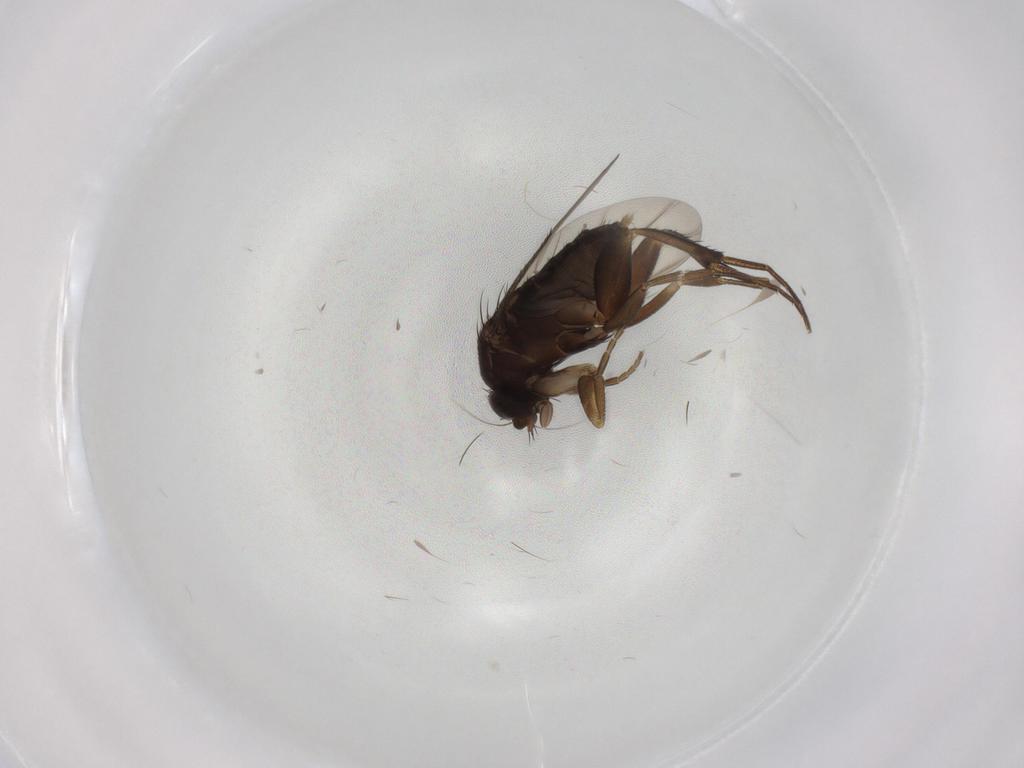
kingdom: Animalia
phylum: Arthropoda
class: Insecta
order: Diptera
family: Phoridae
